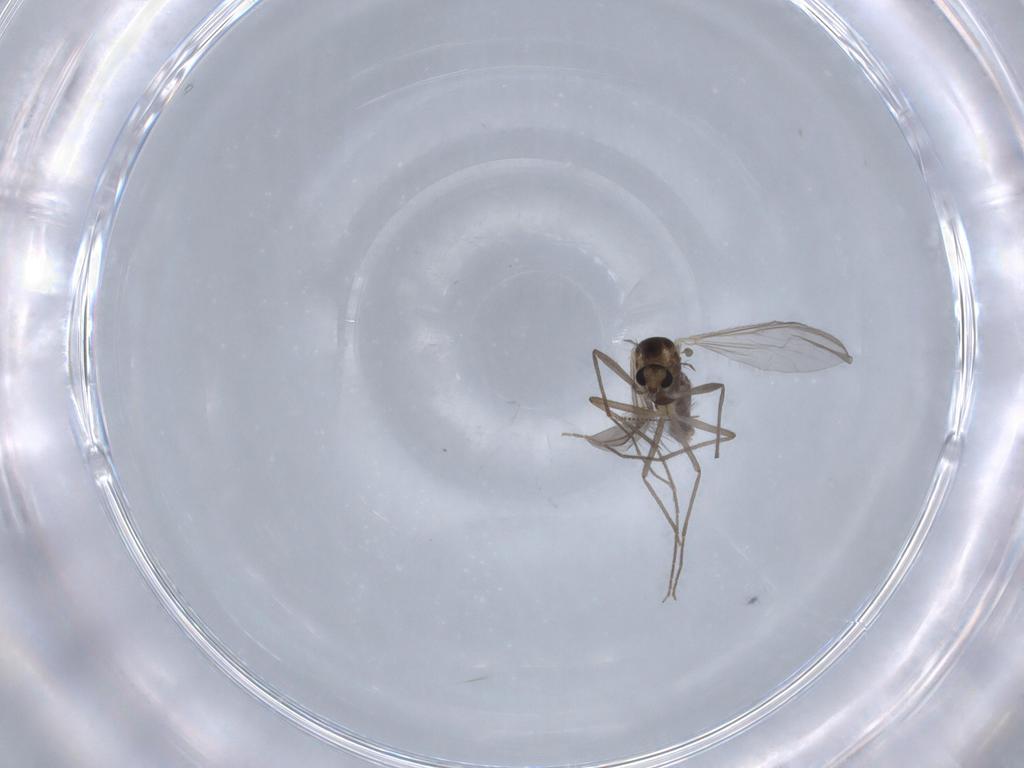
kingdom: Animalia
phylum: Arthropoda
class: Insecta
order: Diptera
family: Chironomidae
